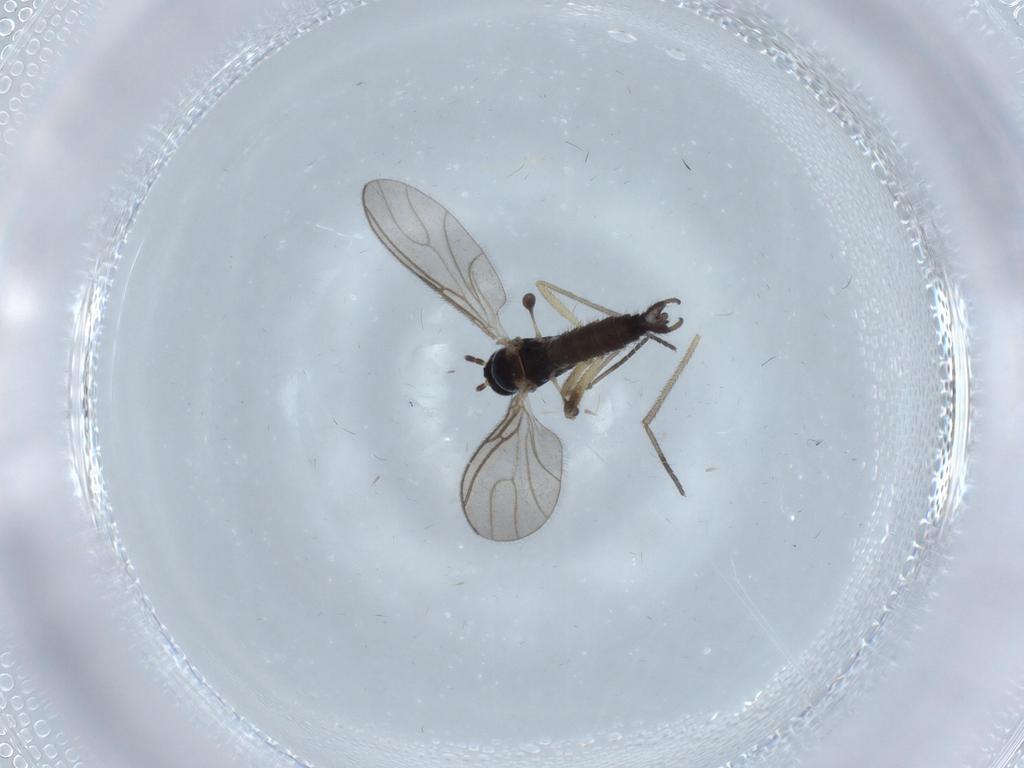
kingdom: Animalia
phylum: Arthropoda
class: Insecta
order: Diptera
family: Sciaridae
